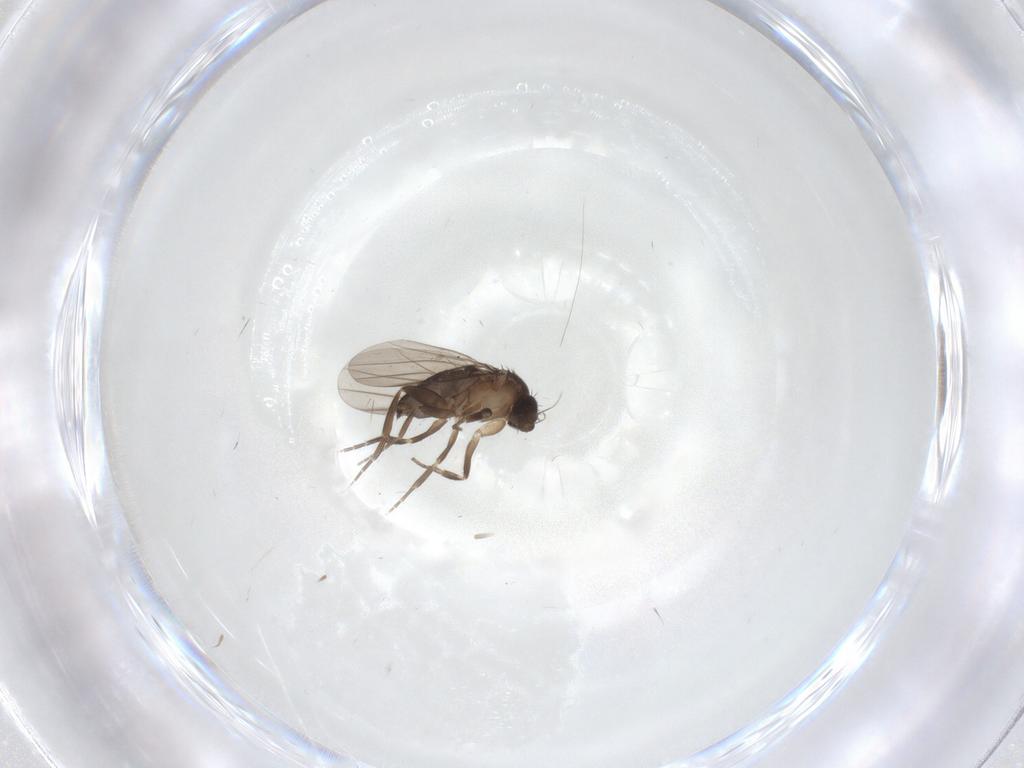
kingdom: Animalia
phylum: Arthropoda
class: Insecta
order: Diptera
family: Phoridae
